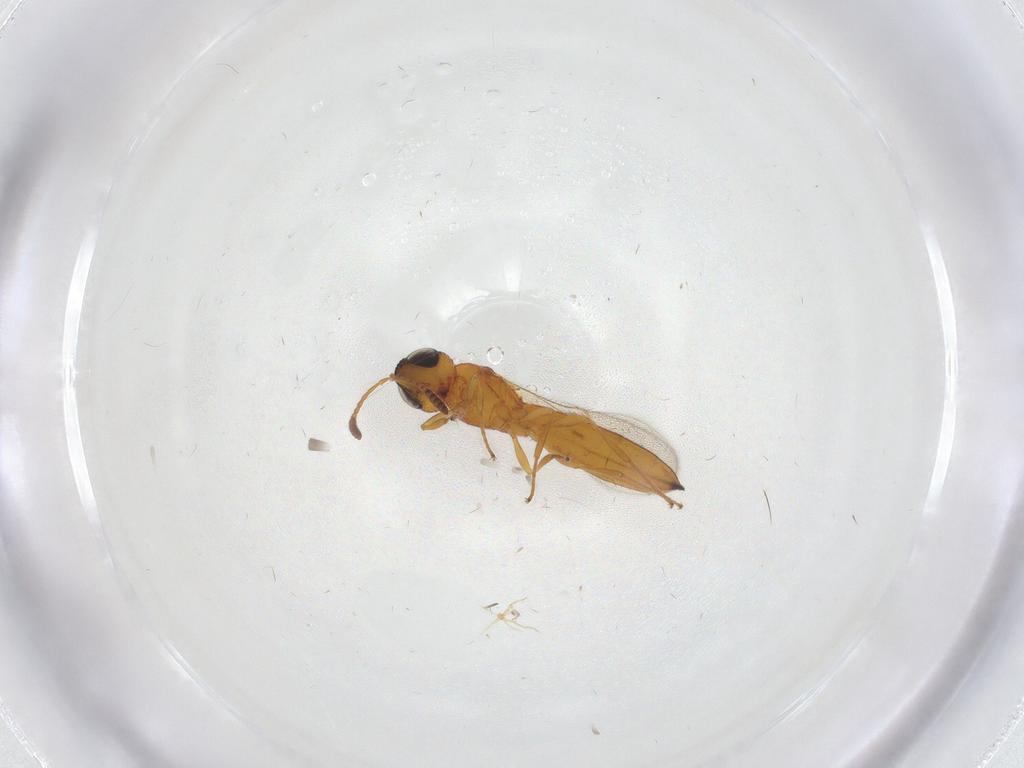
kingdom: Animalia
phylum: Arthropoda
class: Insecta
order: Hymenoptera
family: Scelionidae
